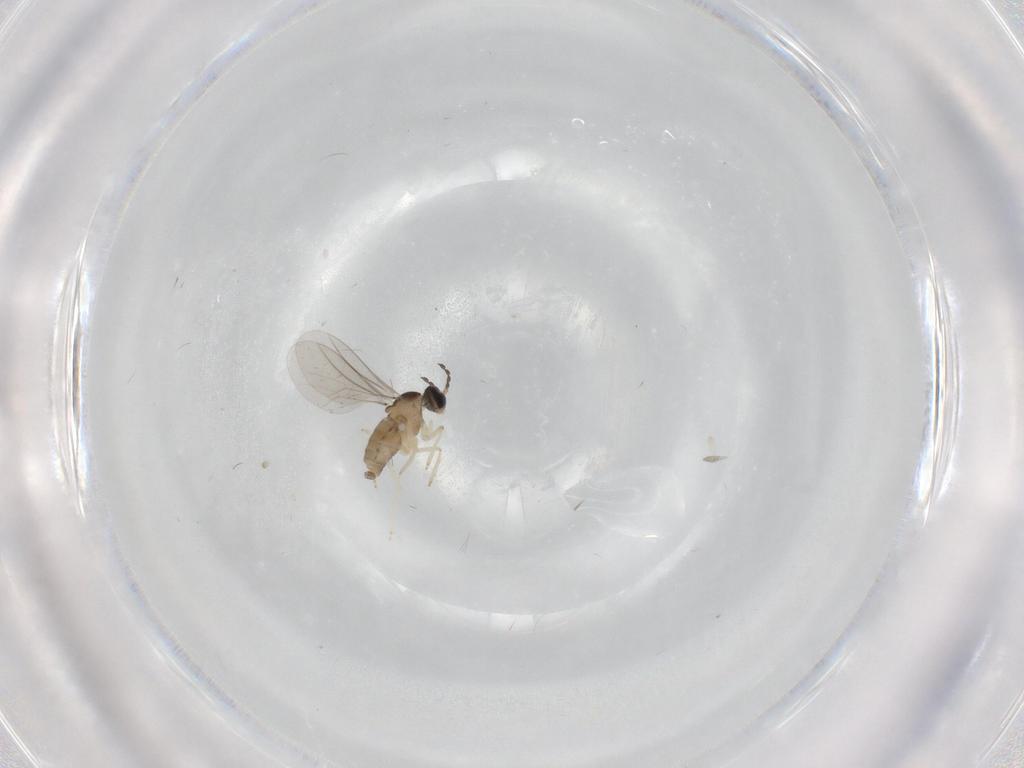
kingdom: Animalia
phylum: Arthropoda
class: Insecta
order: Diptera
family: Cecidomyiidae
